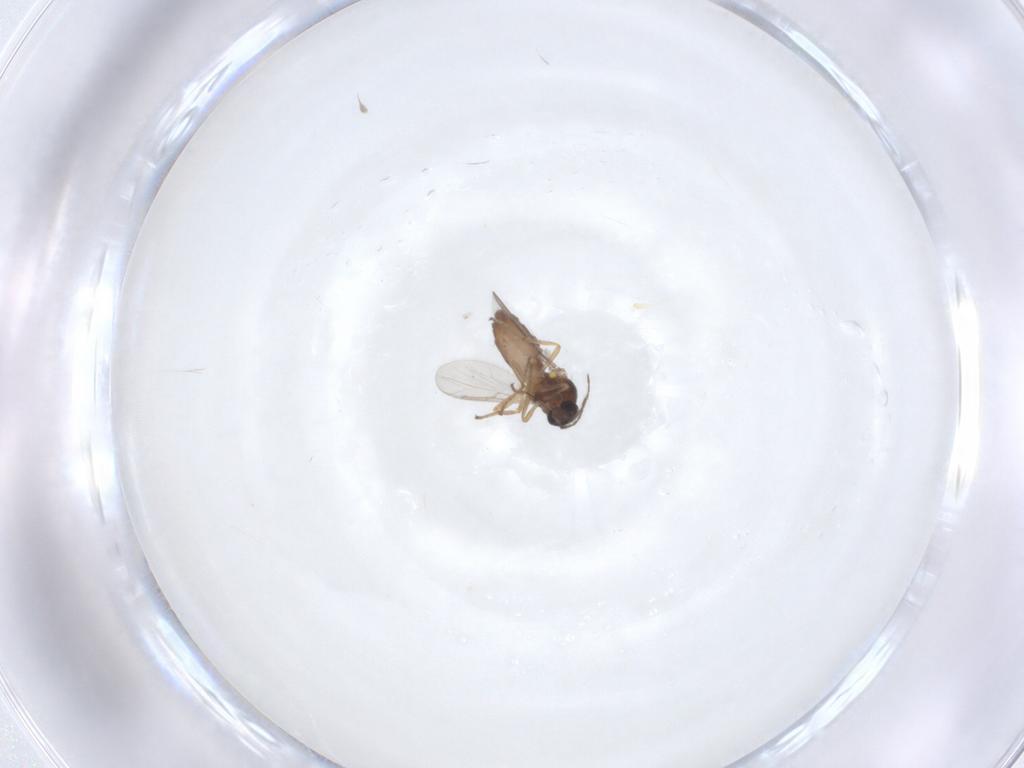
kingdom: Animalia
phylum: Arthropoda
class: Insecta
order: Diptera
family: Ceratopogonidae
